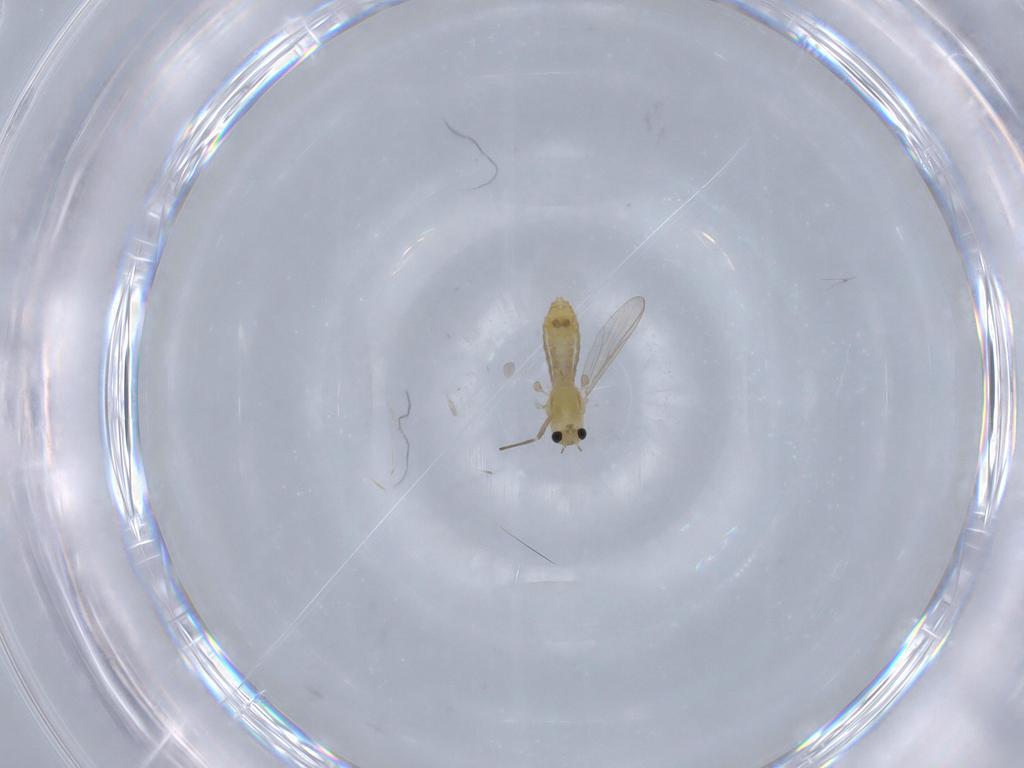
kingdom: Animalia
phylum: Arthropoda
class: Insecta
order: Diptera
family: Chironomidae
